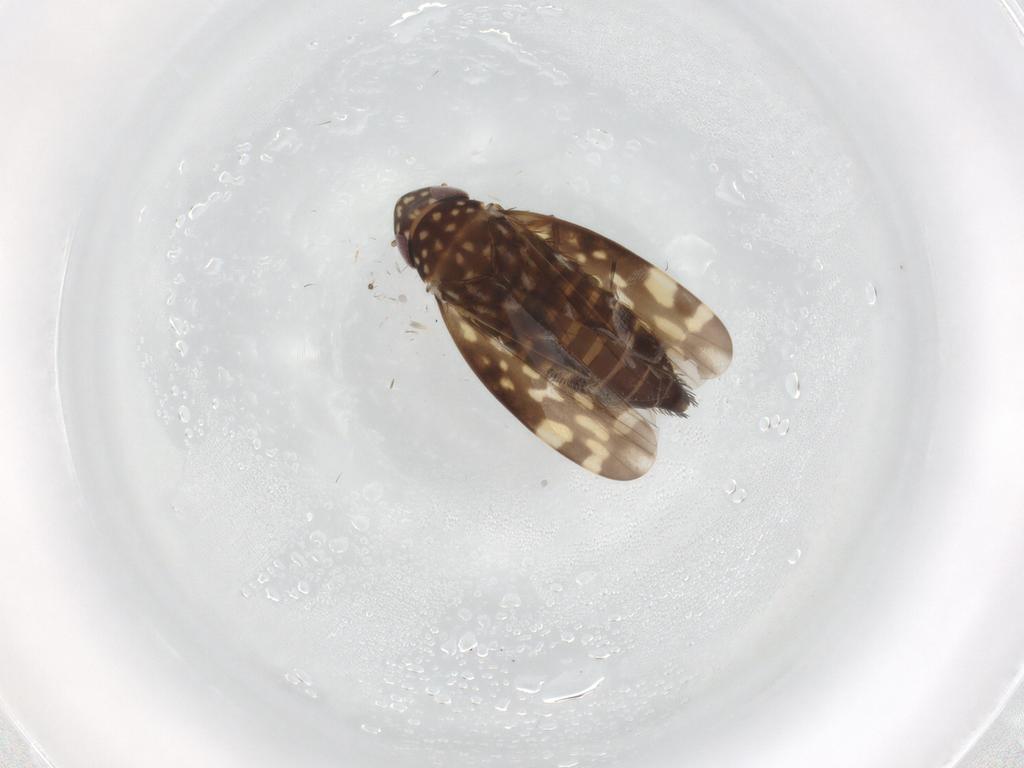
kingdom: Animalia
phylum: Arthropoda
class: Insecta
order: Hemiptera
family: Cicadellidae
